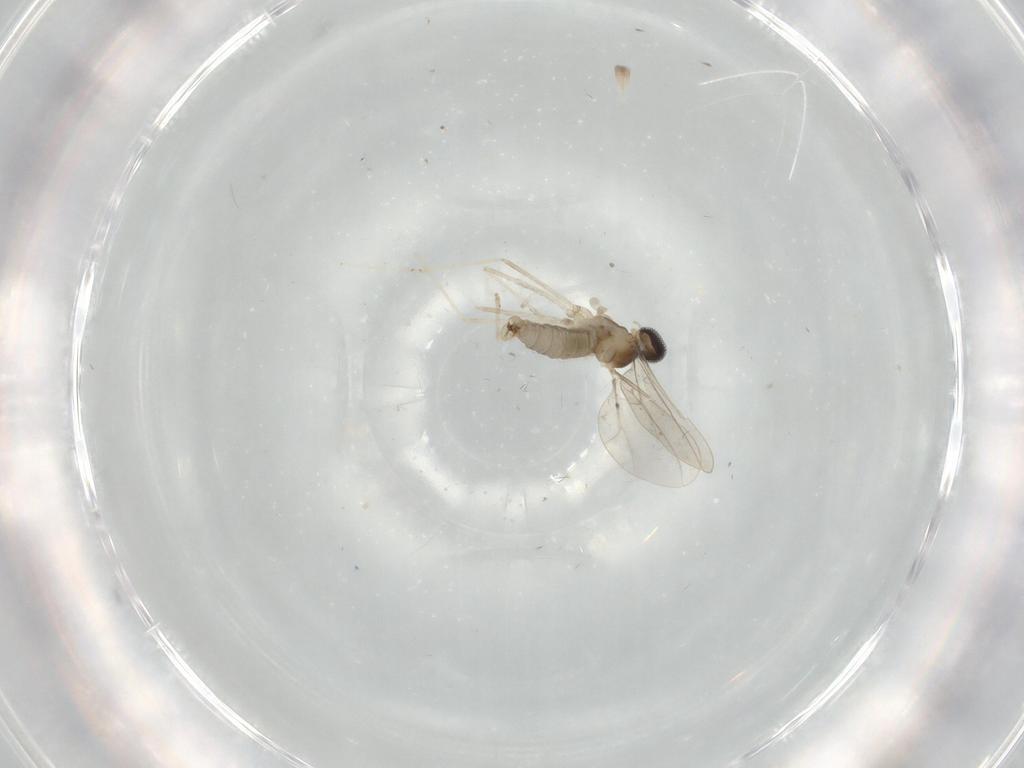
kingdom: Animalia
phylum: Arthropoda
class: Insecta
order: Diptera
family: Cecidomyiidae
